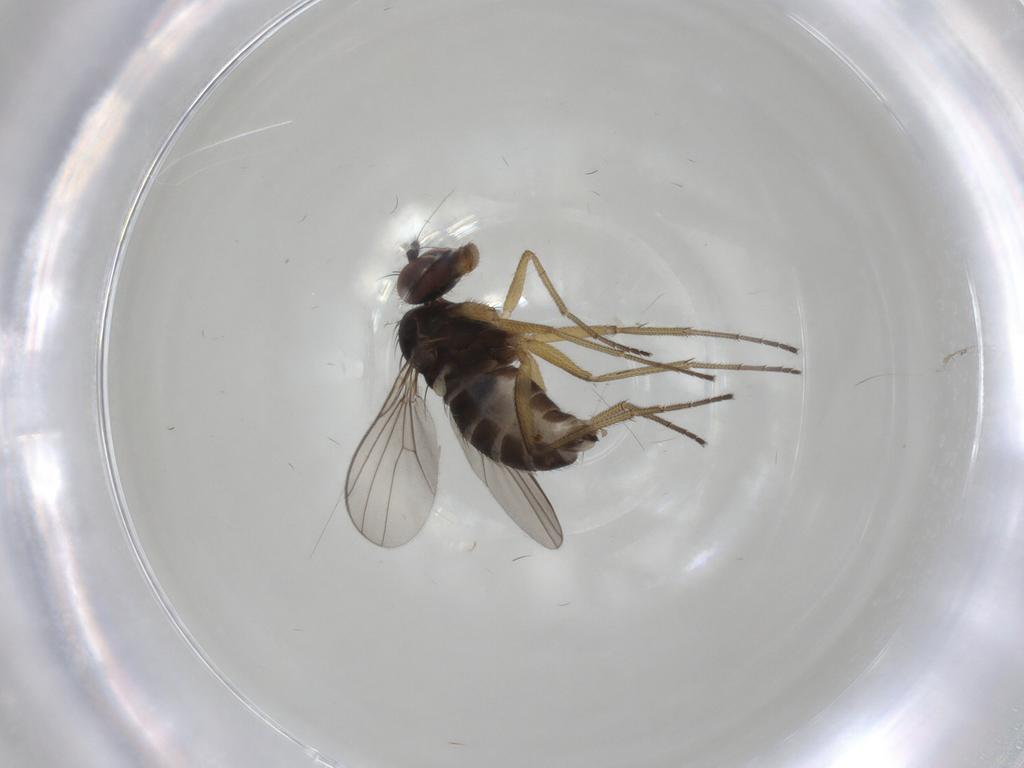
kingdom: Animalia
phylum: Arthropoda
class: Insecta
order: Diptera
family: Dolichopodidae
